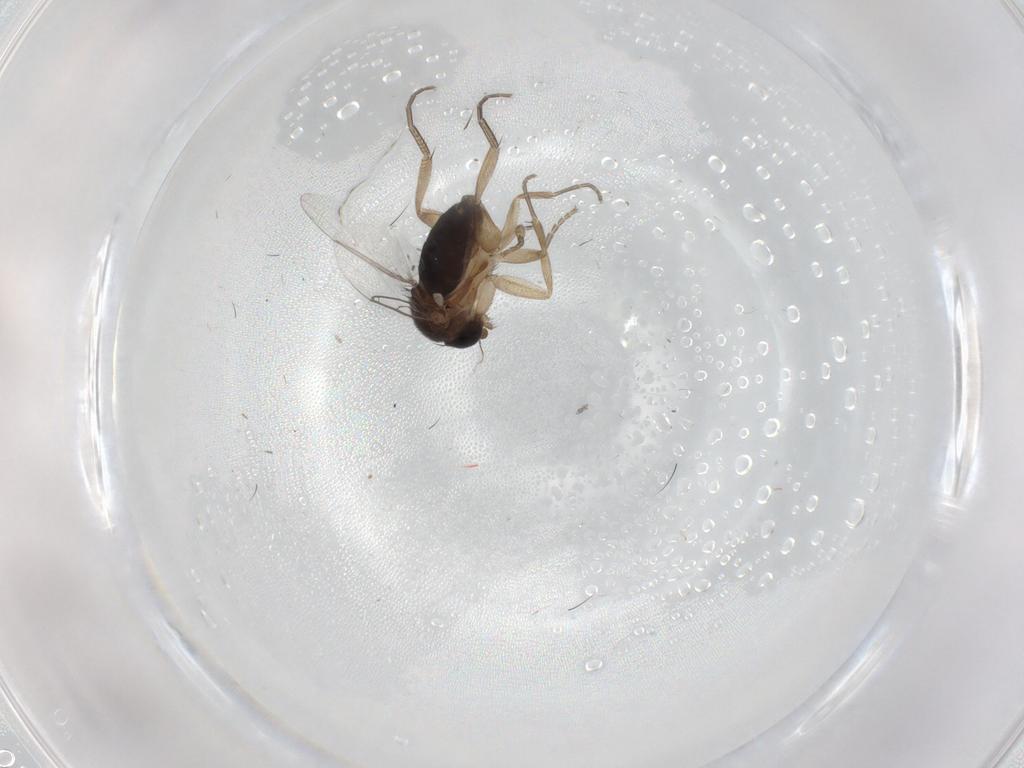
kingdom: Animalia
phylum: Arthropoda
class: Insecta
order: Diptera
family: Phoridae
